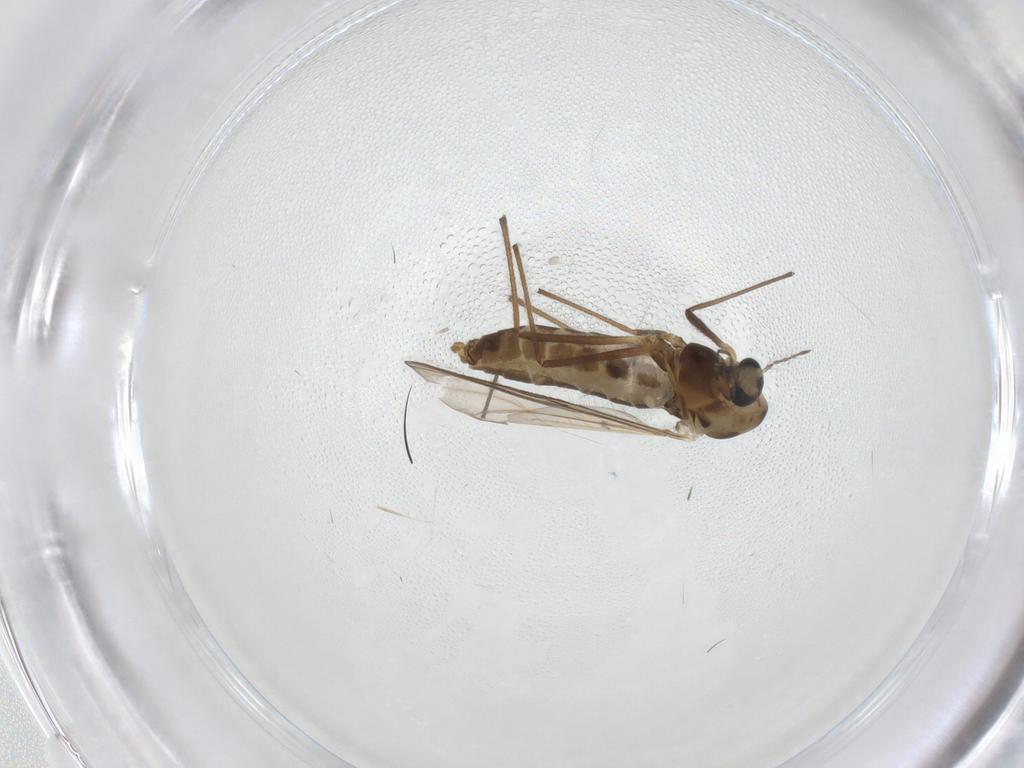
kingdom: Animalia
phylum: Arthropoda
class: Insecta
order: Diptera
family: Chironomidae
